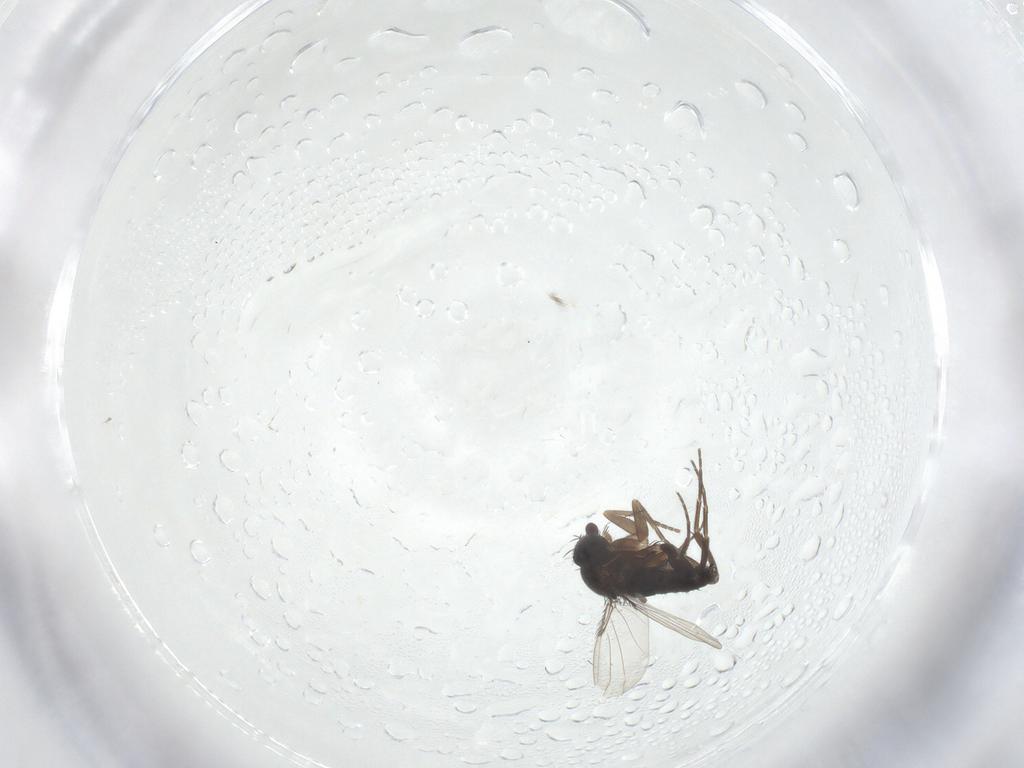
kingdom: Animalia
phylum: Arthropoda
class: Insecta
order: Diptera
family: Phoridae
